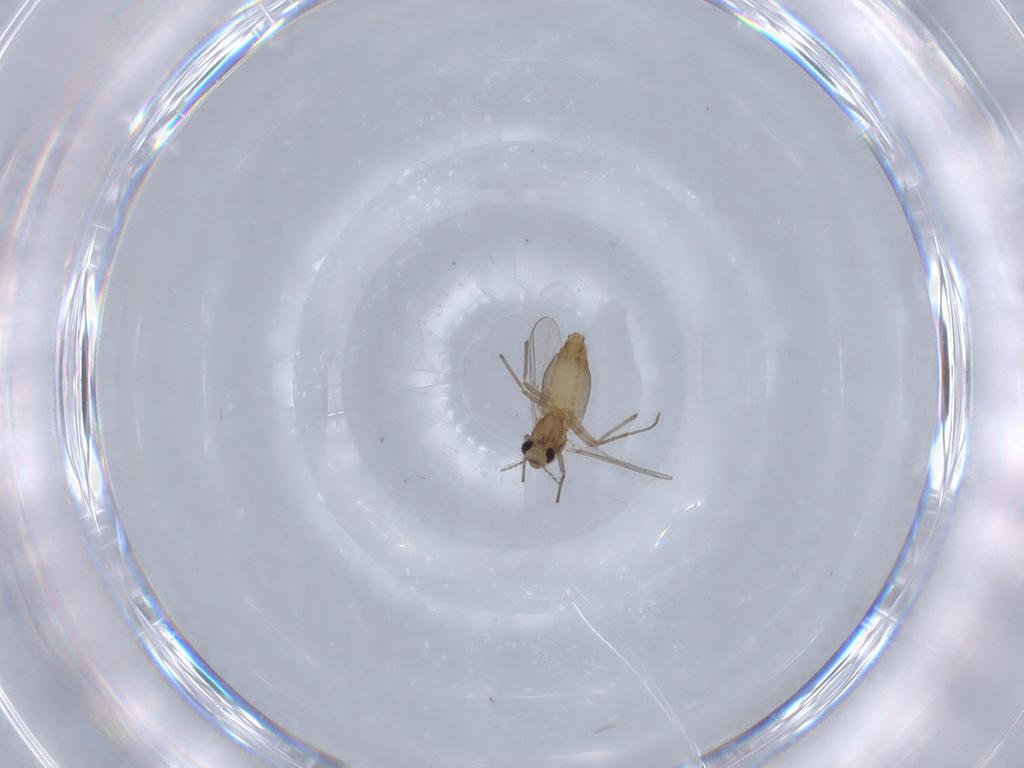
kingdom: Animalia
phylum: Arthropoda
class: Insecta
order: Diptera
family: Chironomidae
